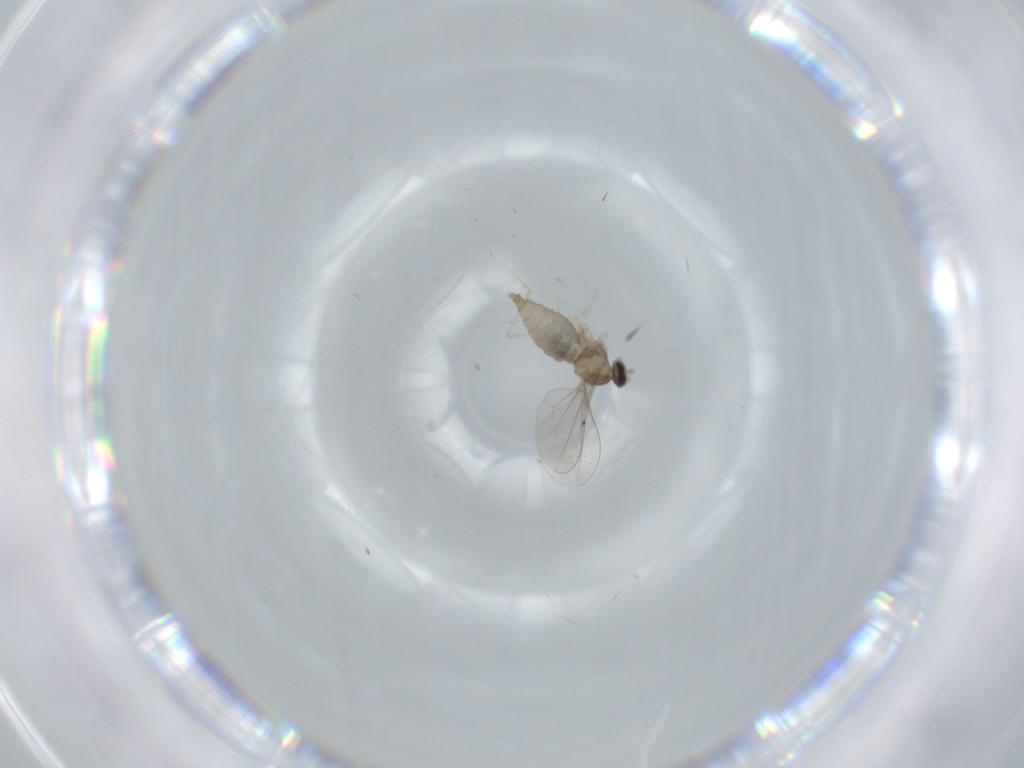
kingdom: Animalia
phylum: Arthropoda
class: Insecta
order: Diptera
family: Cecidomyiidae
